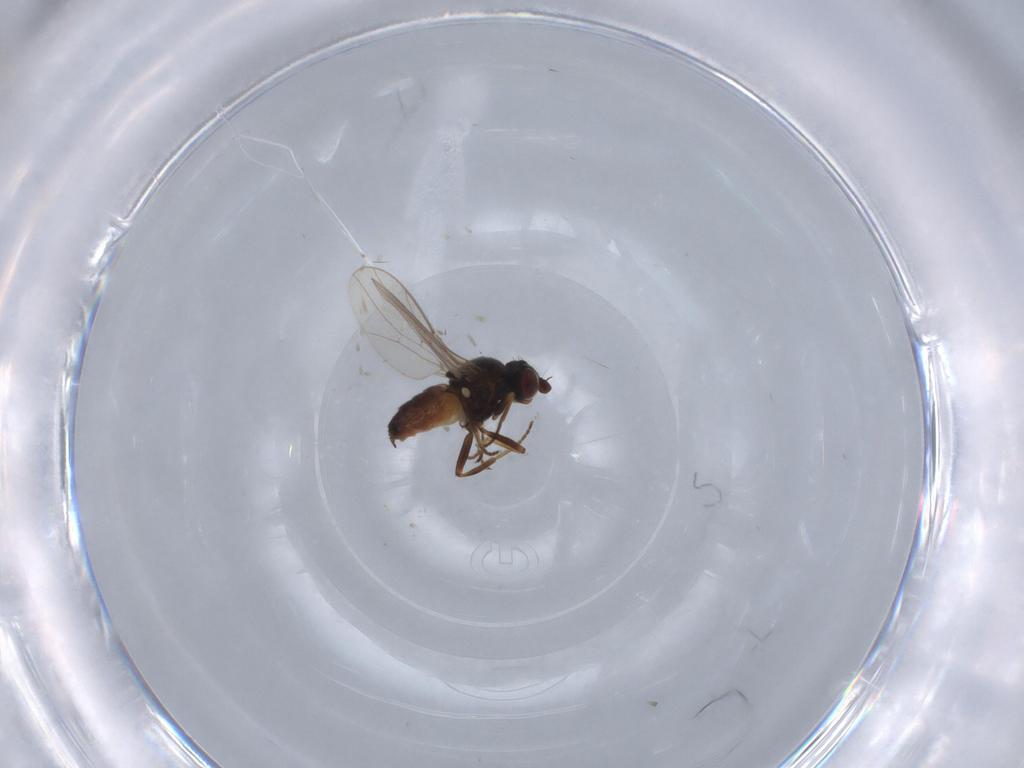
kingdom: Animalia
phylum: Arthropoda
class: Insecta
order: Diptera
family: Chloropidae
